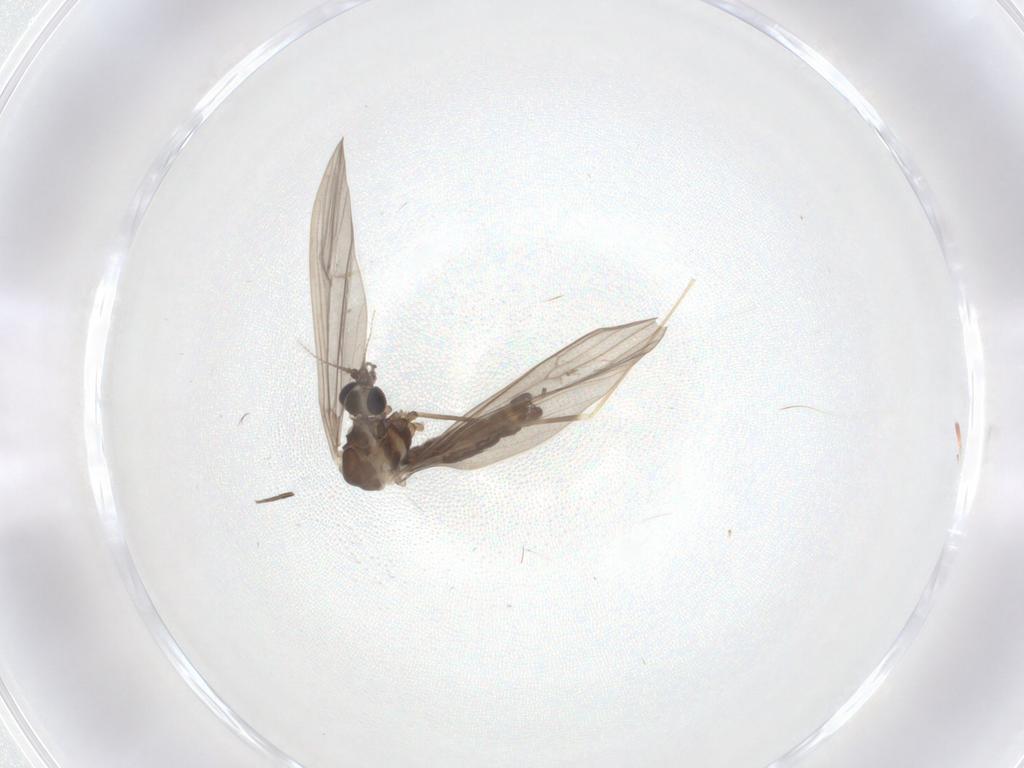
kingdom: Animalia
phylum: Arthropoda
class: Insecta
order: Diptera
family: Limoniidae
